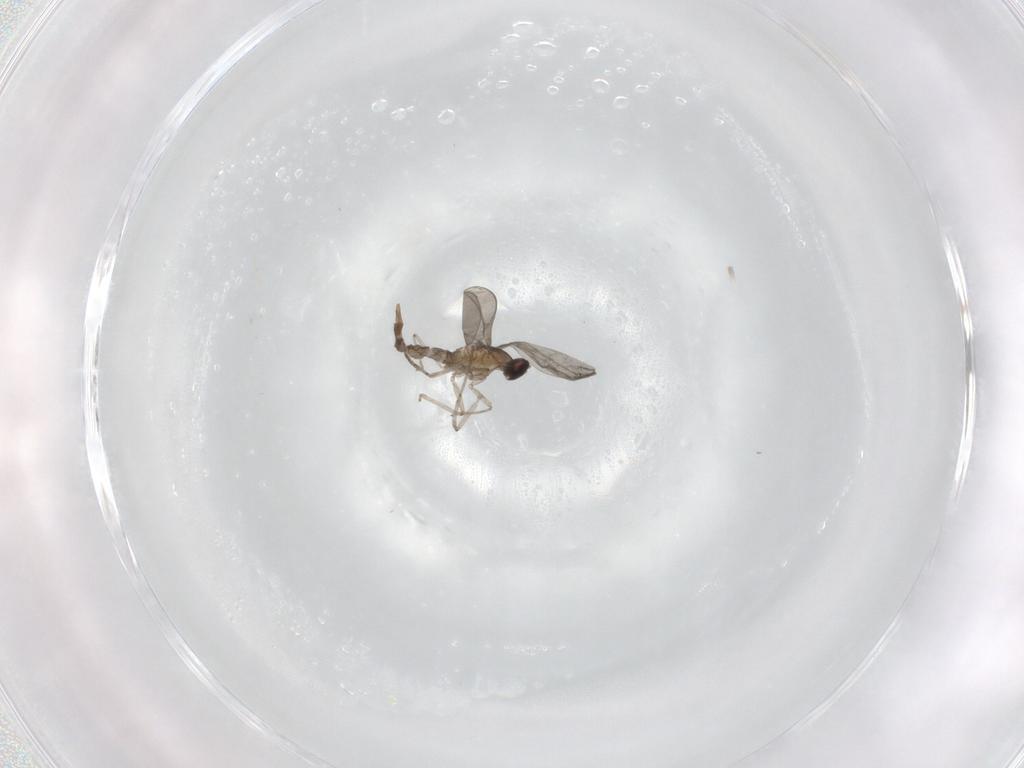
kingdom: Animalia
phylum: Arthropoda
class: Insecta
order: Diptera
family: Cecidomyiidae
